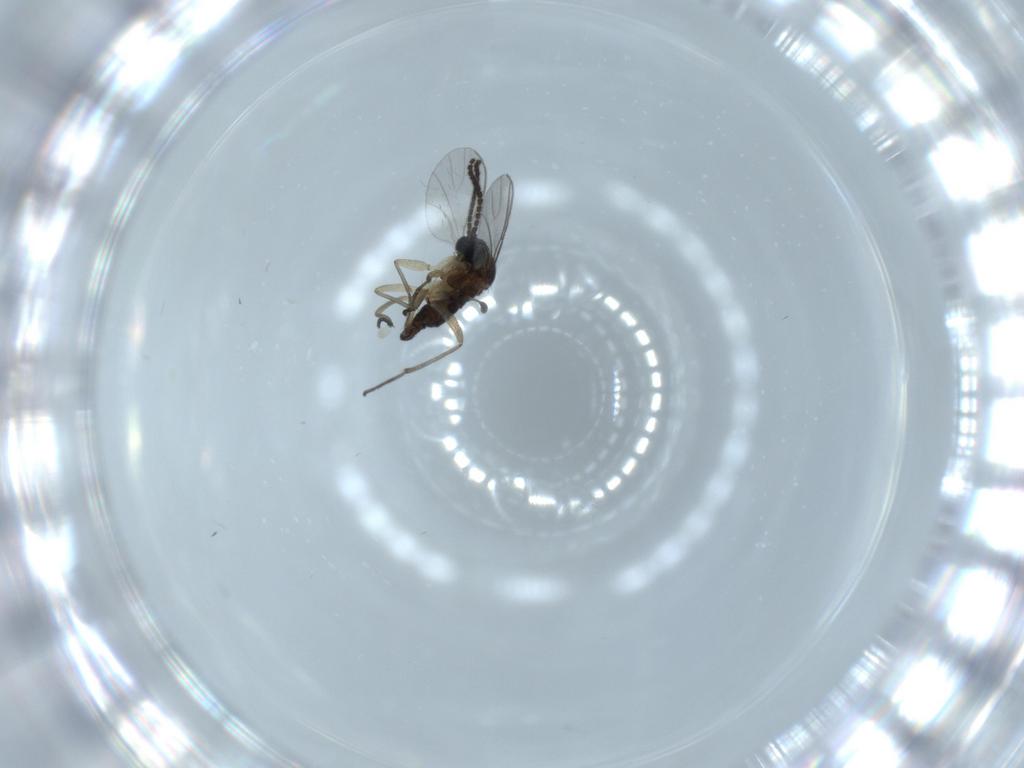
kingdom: Animalia
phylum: Arthropoda
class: Insecta
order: Diptera
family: Sciaridae
